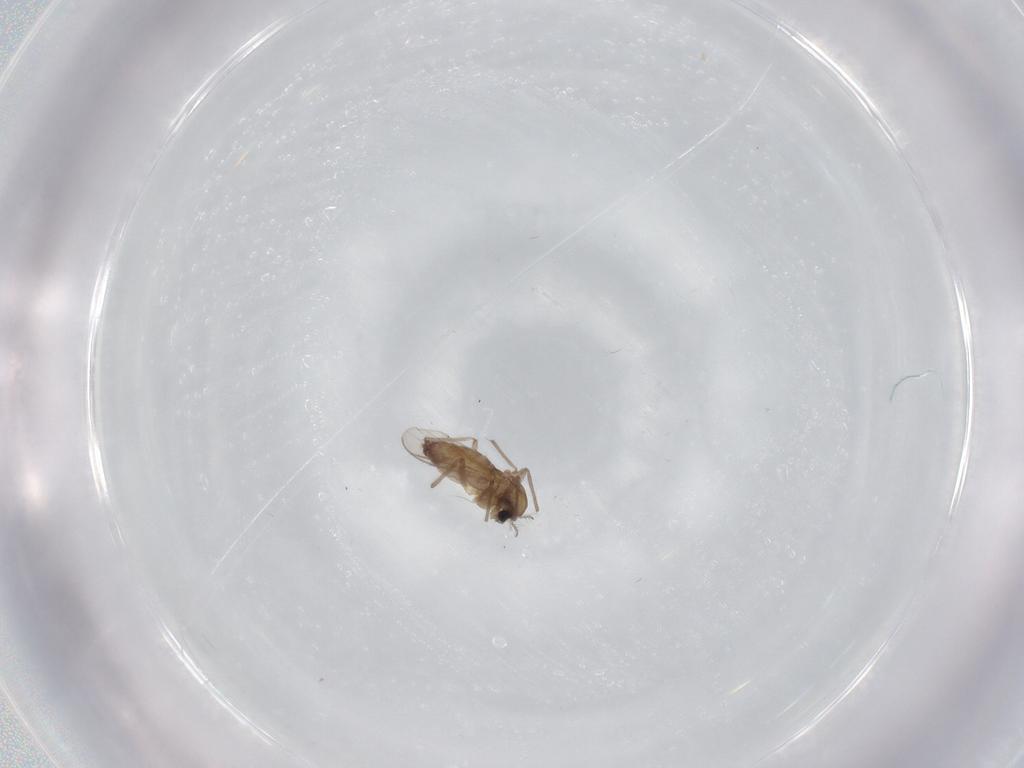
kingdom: Animalia
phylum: Arthropoda
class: Insecta
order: Diptera
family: Chironomidae
